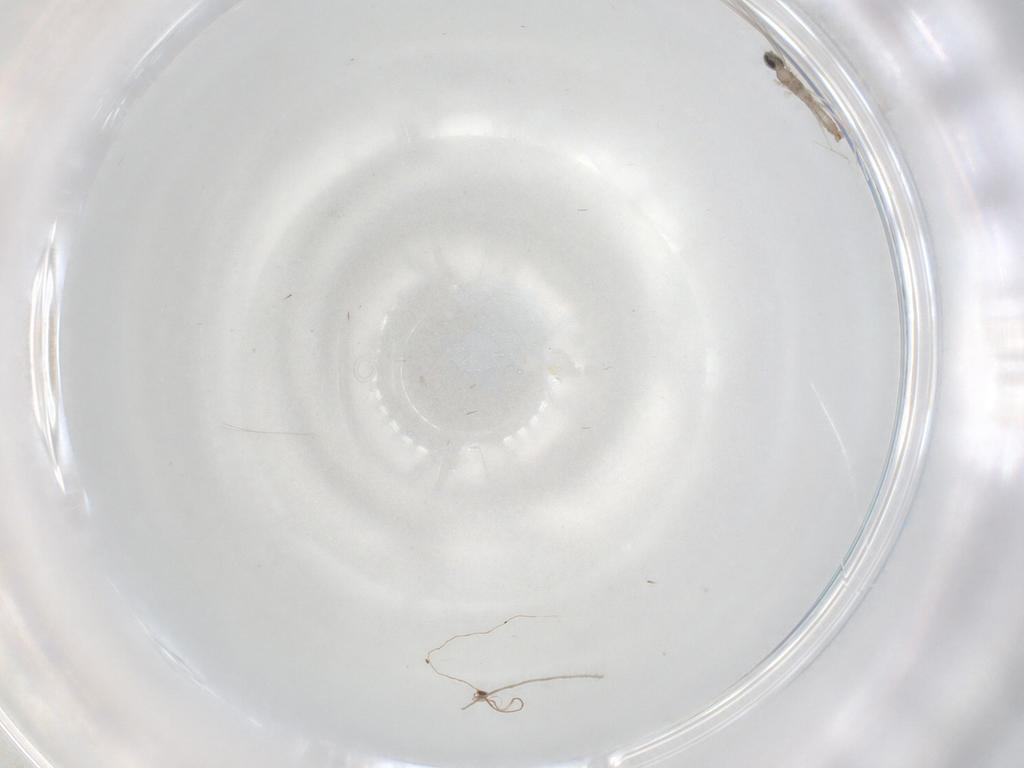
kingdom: Animalia
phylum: Arthropoda
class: Insecta
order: Diptera
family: Cecidomyiidae
